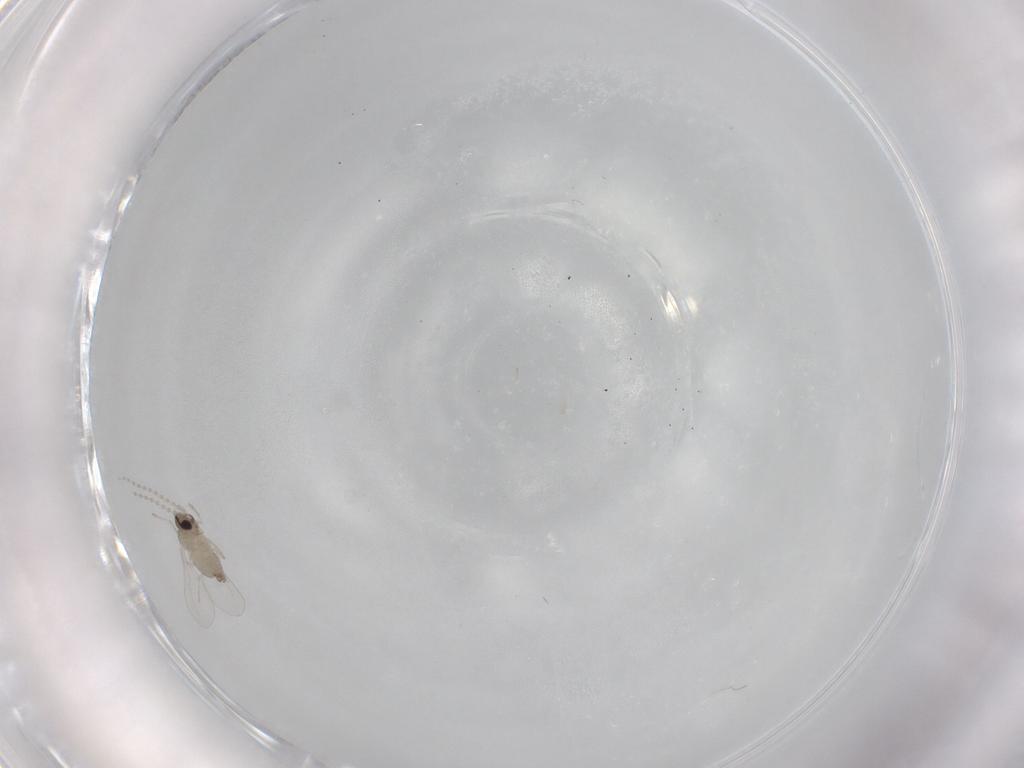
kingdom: Animalia
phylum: Arthropoda
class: Insecta
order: Diptera
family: Cecidomyiidae
